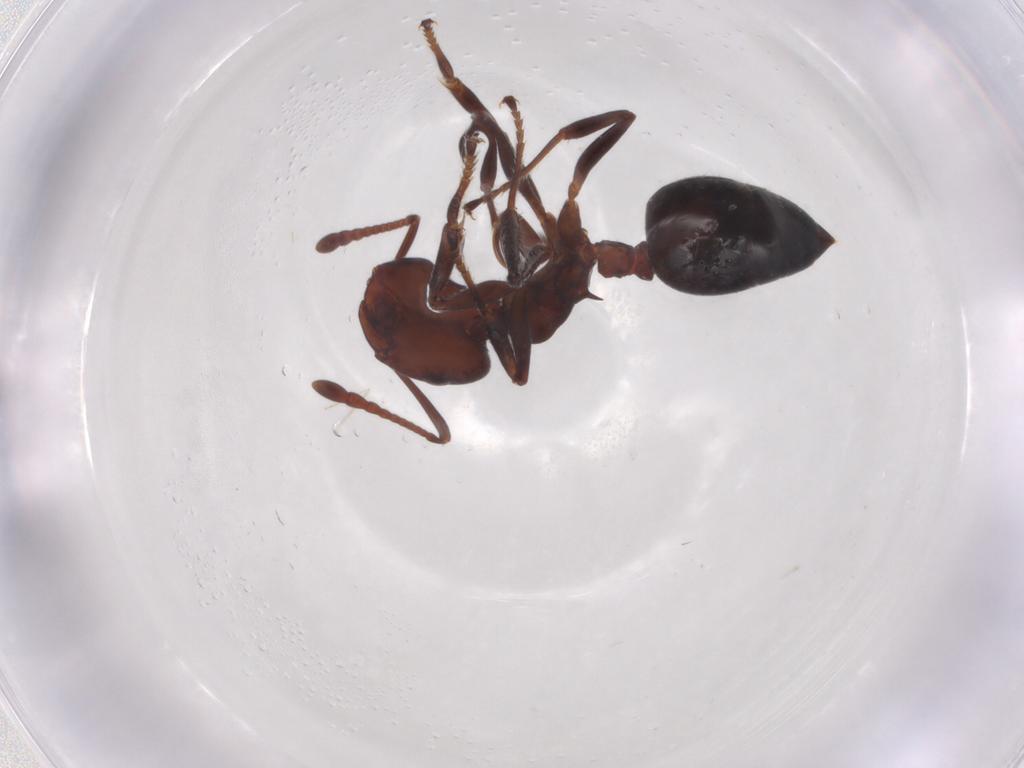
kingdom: Animalia
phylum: Arthropoda
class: Insecta
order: Hymenoptera
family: Formicidae
